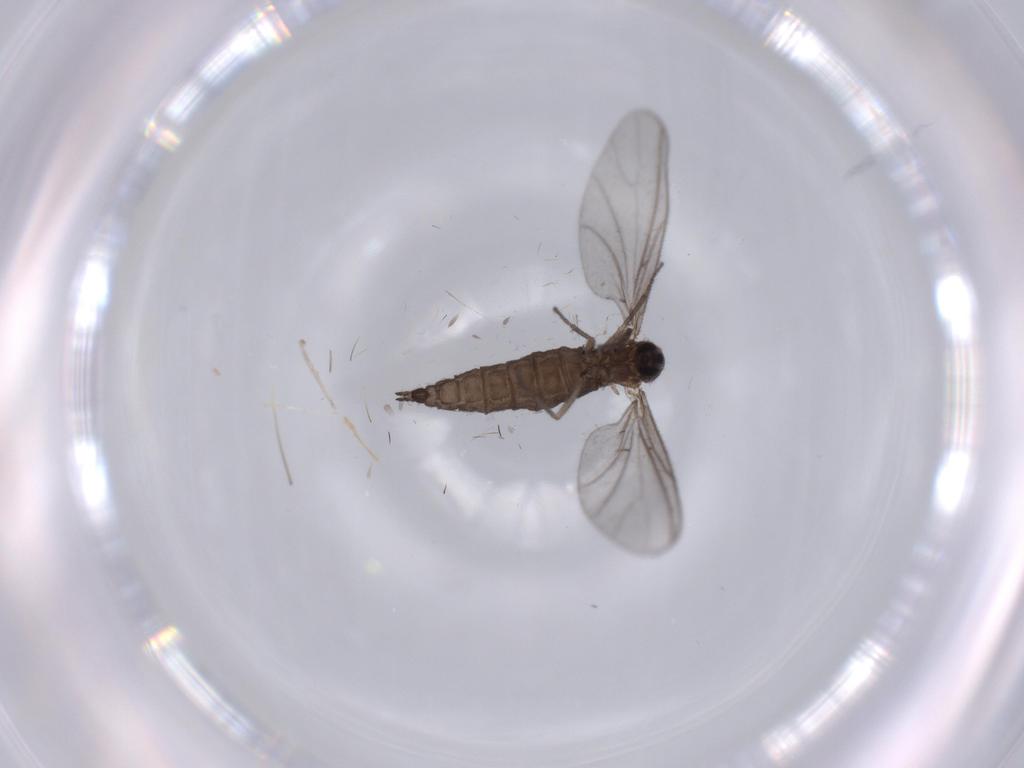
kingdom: Animalia
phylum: Arthropoda
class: Insecta
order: Diptera
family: Sciaridae
